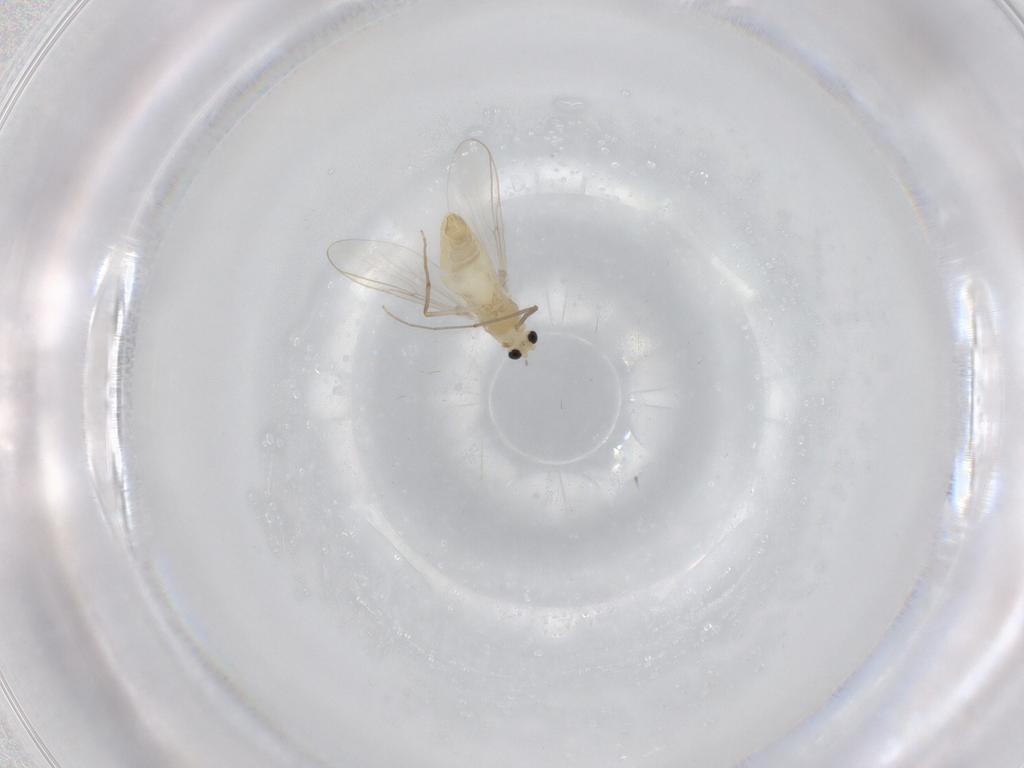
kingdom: Animalia
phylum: Arthropoda
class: Insecta
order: Diptera
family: Chironomidae
